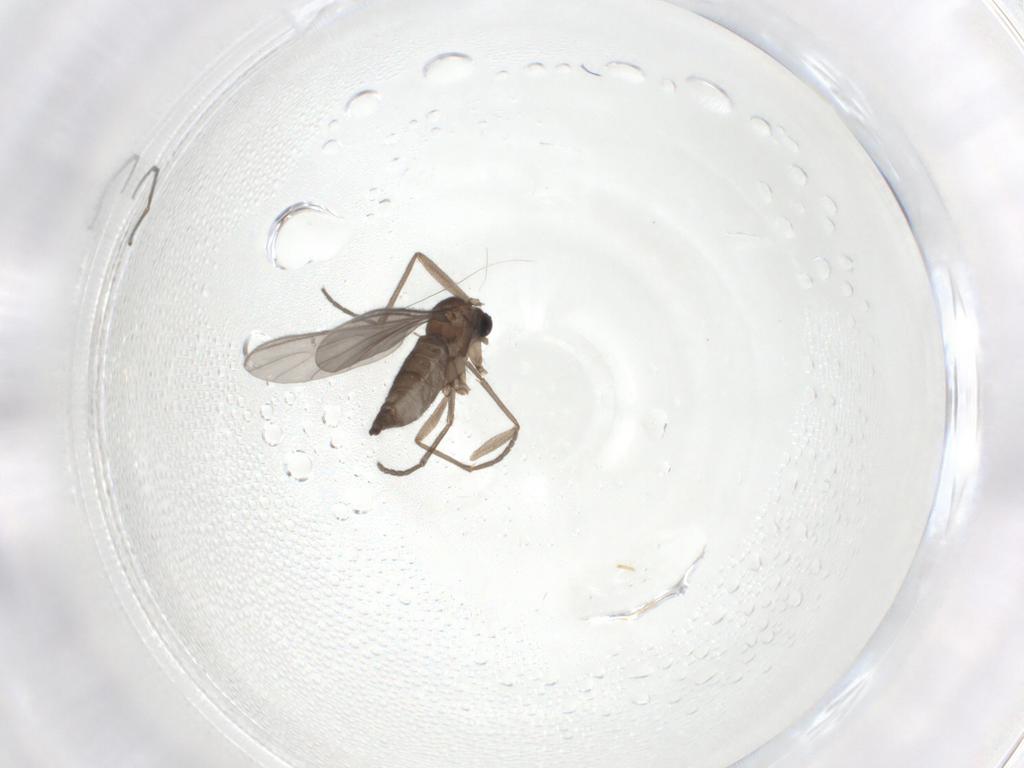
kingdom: Animalia
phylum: Arthropoda
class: Insecta
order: Diptera
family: Sciaridae
